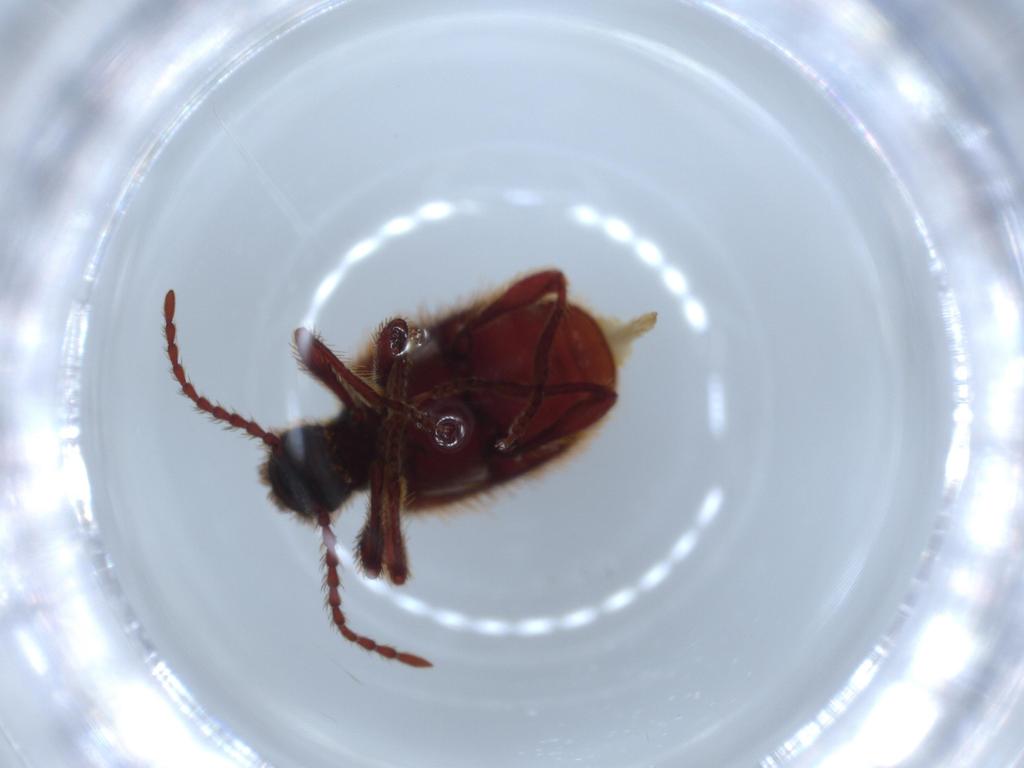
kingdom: Animalia
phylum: Arthropoda
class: Insecta
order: Coleoptera
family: Ptinidae
